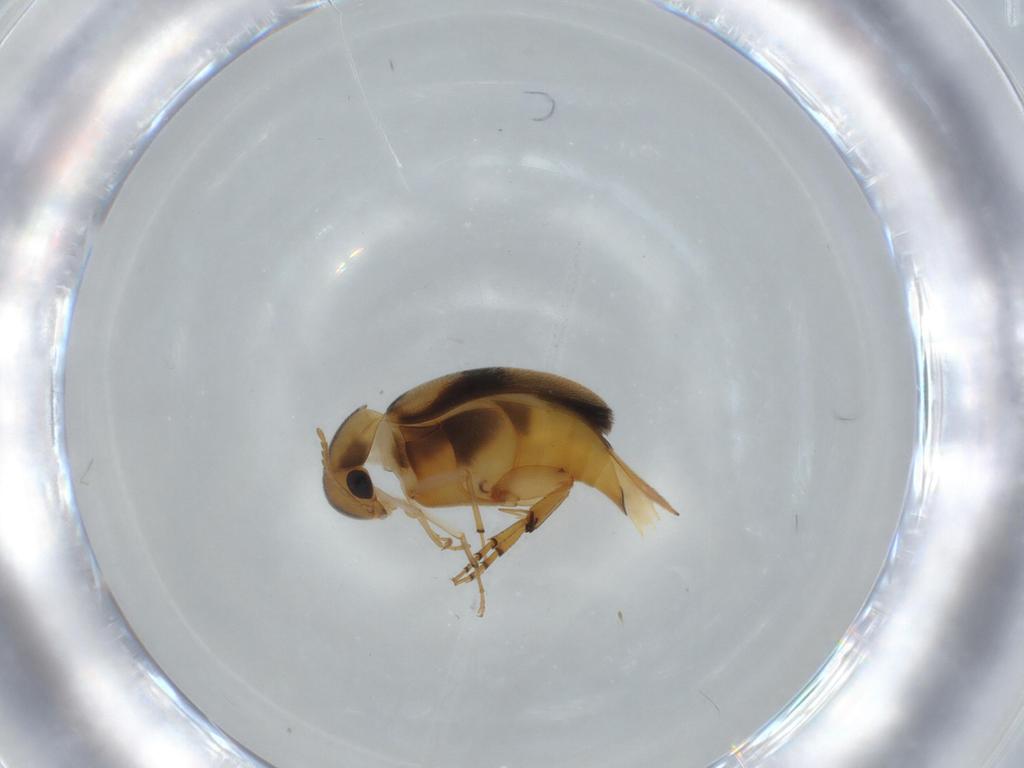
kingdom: Animalia
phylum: Arthropoda
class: Insecta
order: Coleoptera
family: Mordellidae
